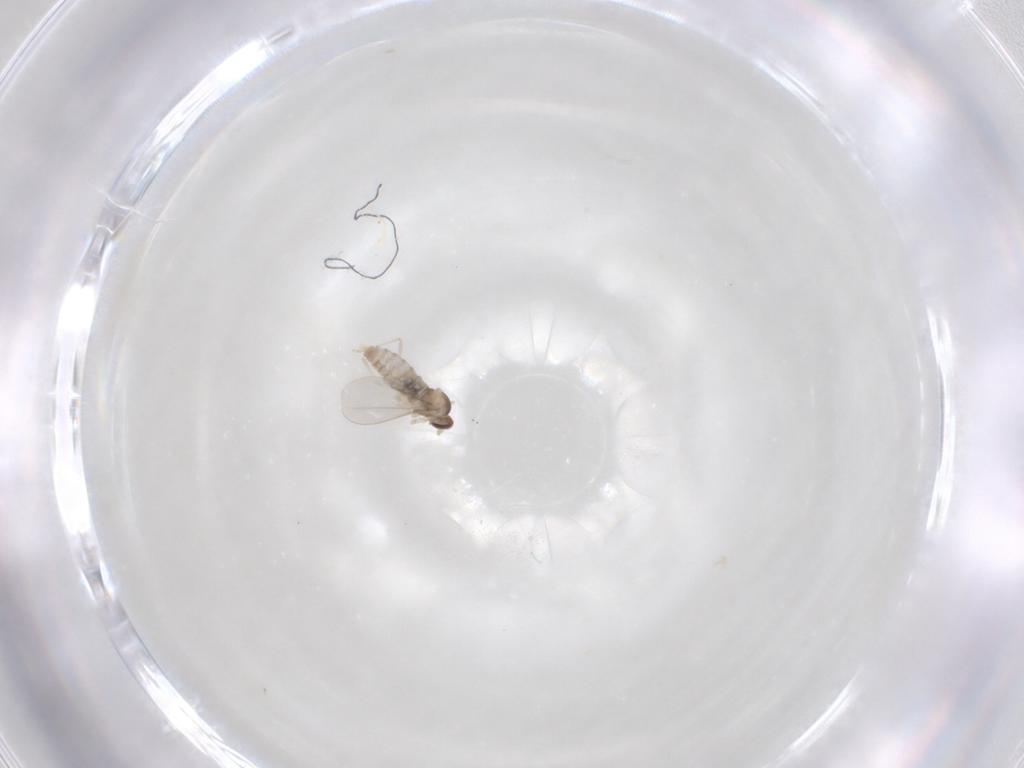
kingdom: Animalia
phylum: Arthropoda
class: Insecta
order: Diptera
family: Cecidomyiidae
